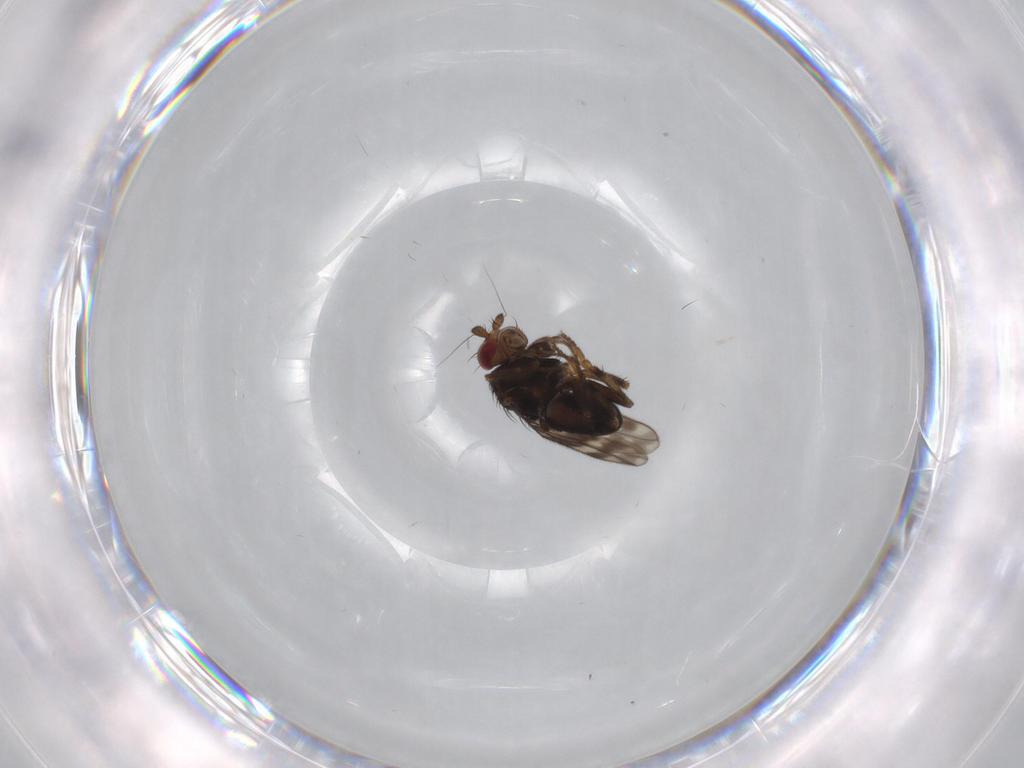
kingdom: Animalia
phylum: Arthropoda
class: Insecta
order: Diptera
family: Sphaeroceridae
